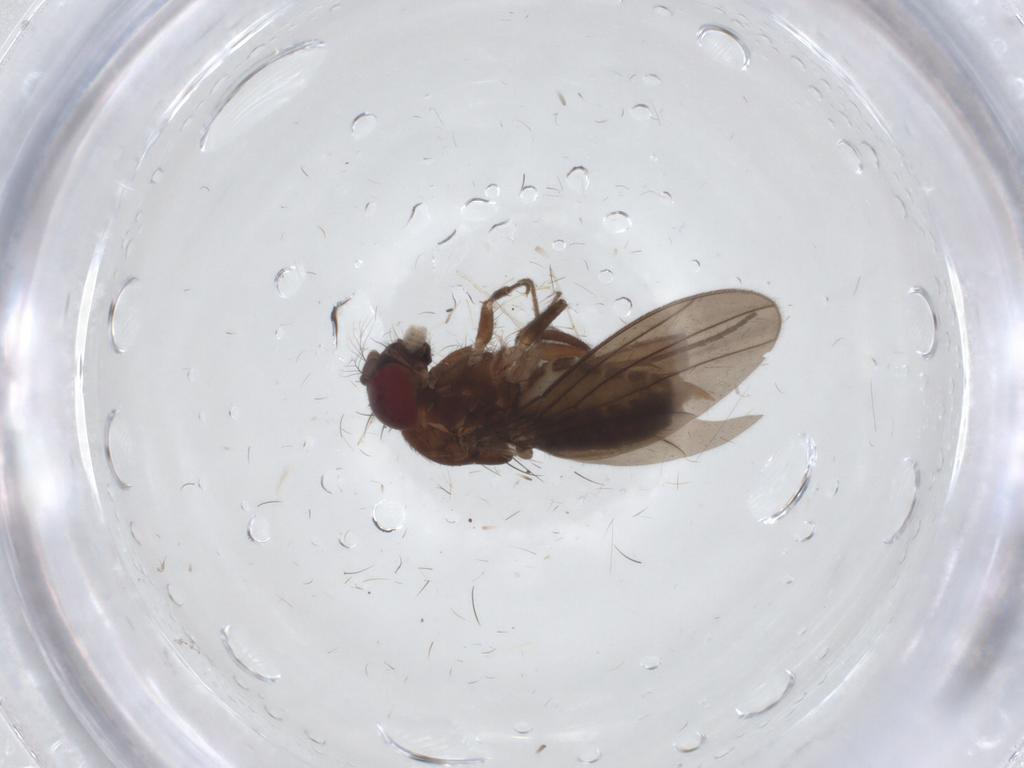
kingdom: Animalia
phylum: Arthropoda
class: Insecta
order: Diptera
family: Drosophilidae
